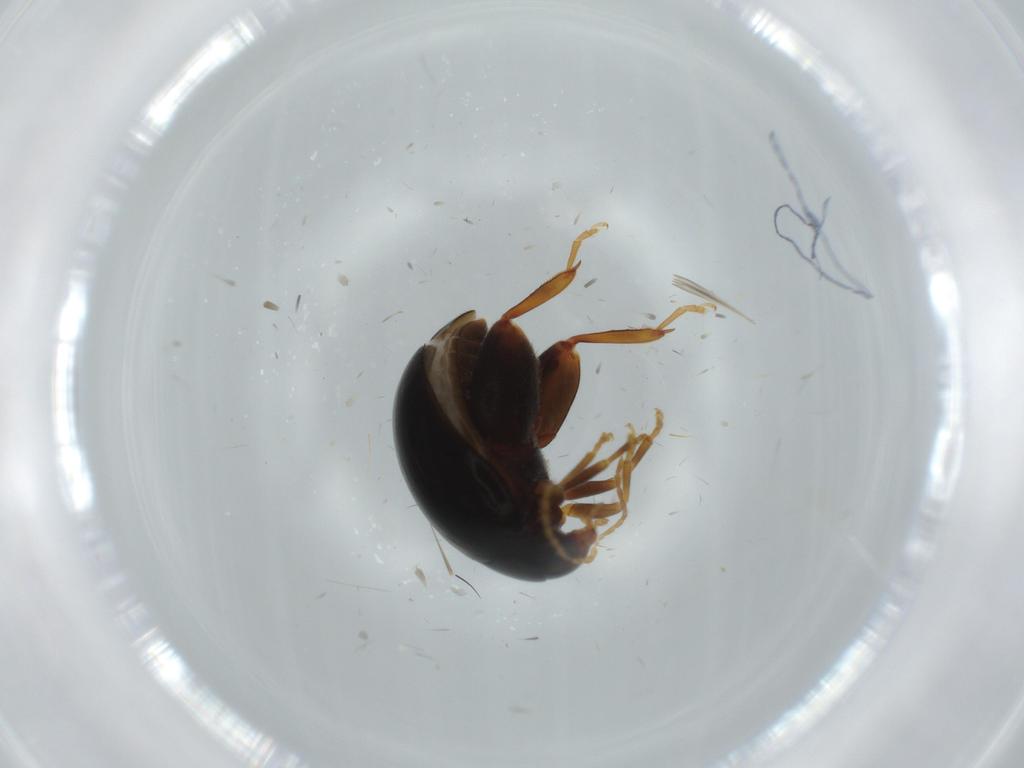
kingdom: Animalia
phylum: Arthropoda
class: Insecta
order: Coleoptera
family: Chrysomelidae
